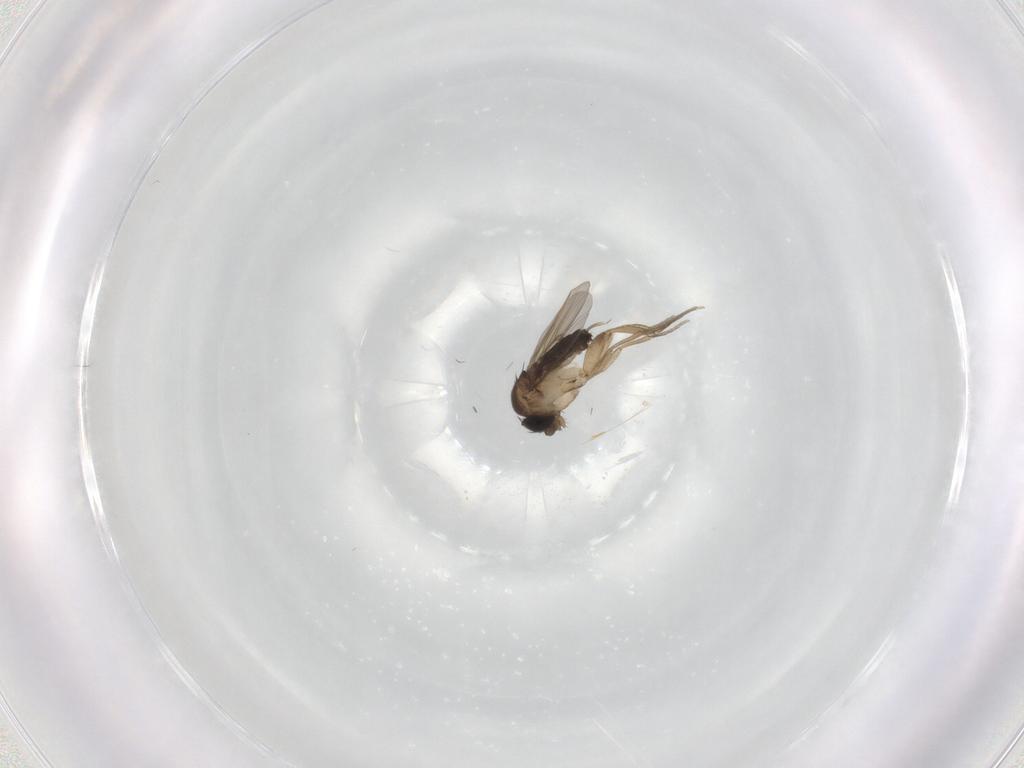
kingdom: Animalia
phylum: Arthropoda
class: Insecta
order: Diptera
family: Phoridae
